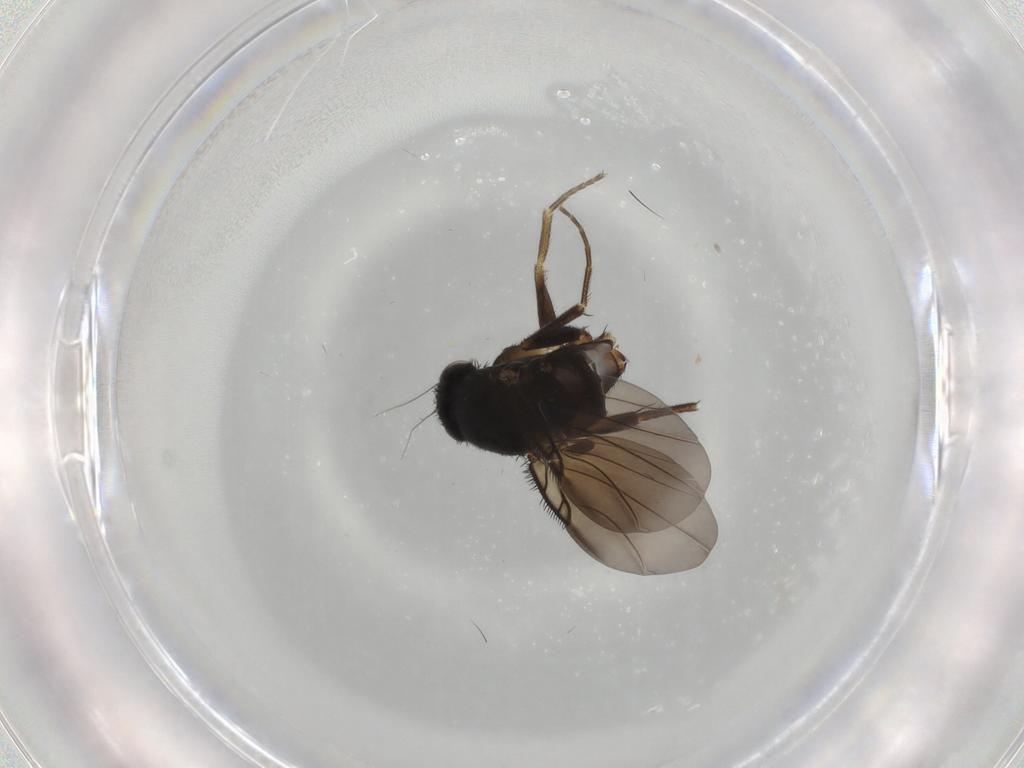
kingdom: Animalia
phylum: Arthropoda
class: Insecta
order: Diptera
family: Phoridae
